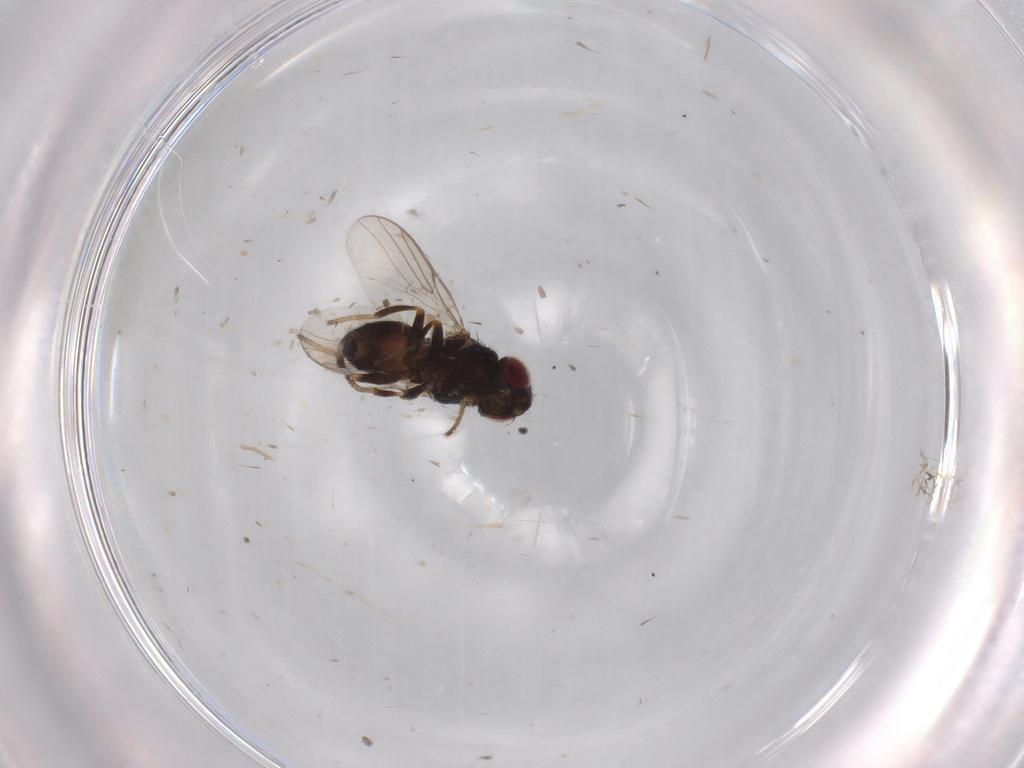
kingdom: Animalia
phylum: Arthropoda
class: Insecta
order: Diptera
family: Chloropidae
